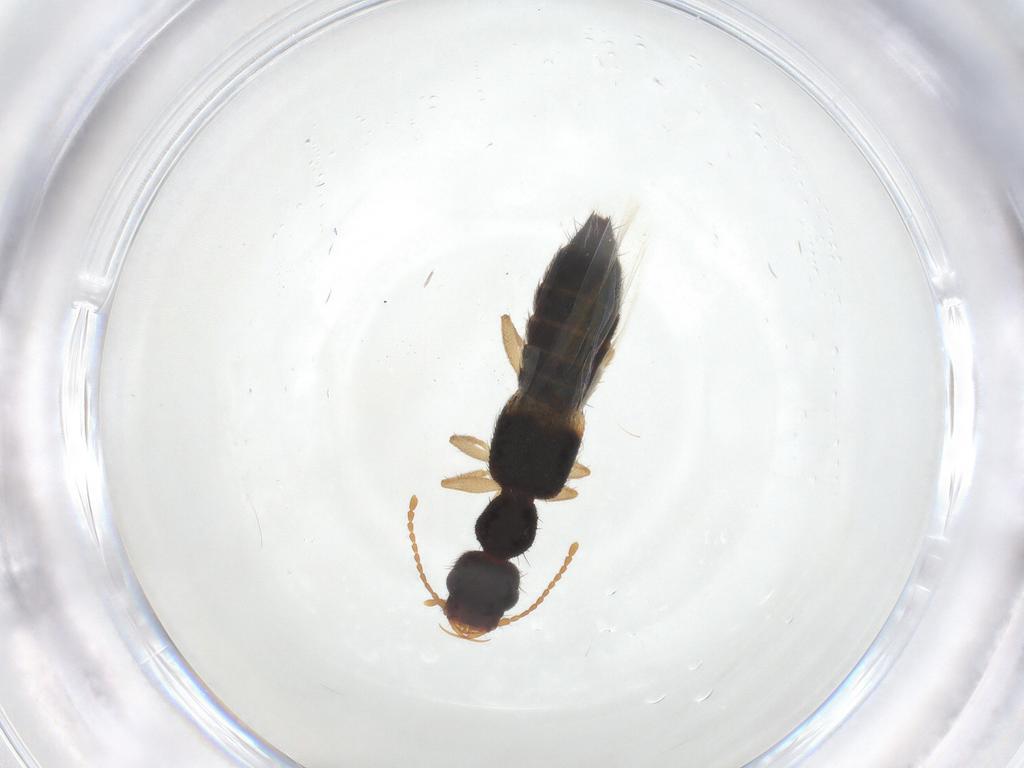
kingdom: Animalia
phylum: Arthropoda
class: Insecta
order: Coleoptera
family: Staphylinidae
